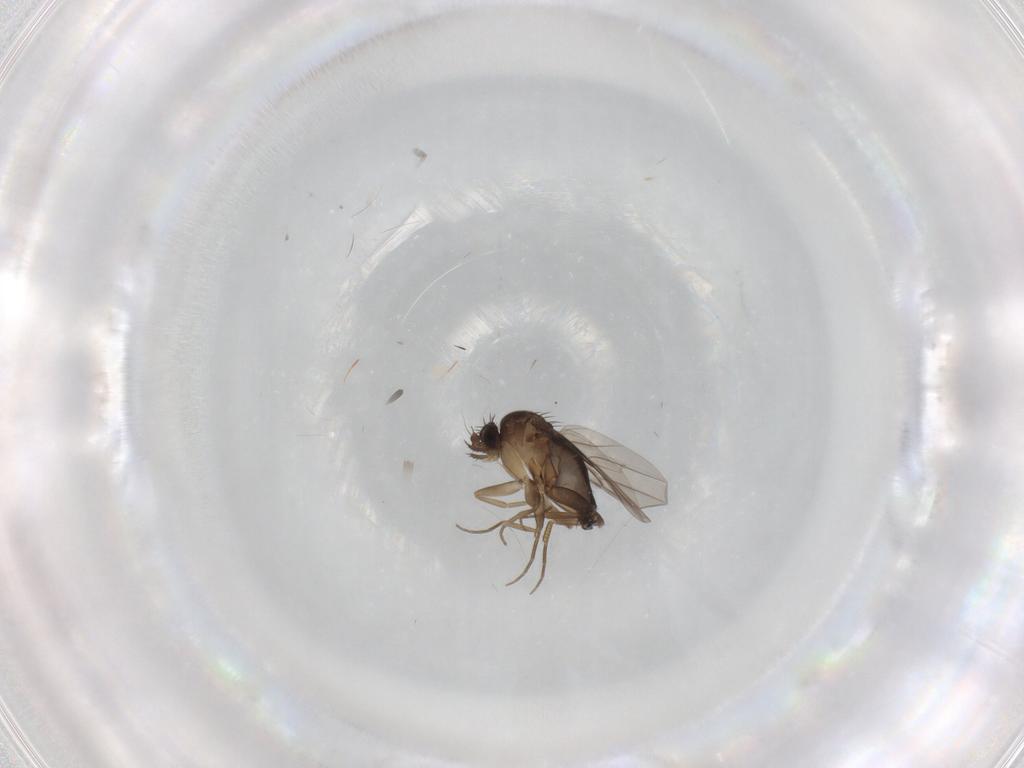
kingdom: Animalia
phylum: Arthropoda
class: Insecta
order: Diptera
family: Phoridae
